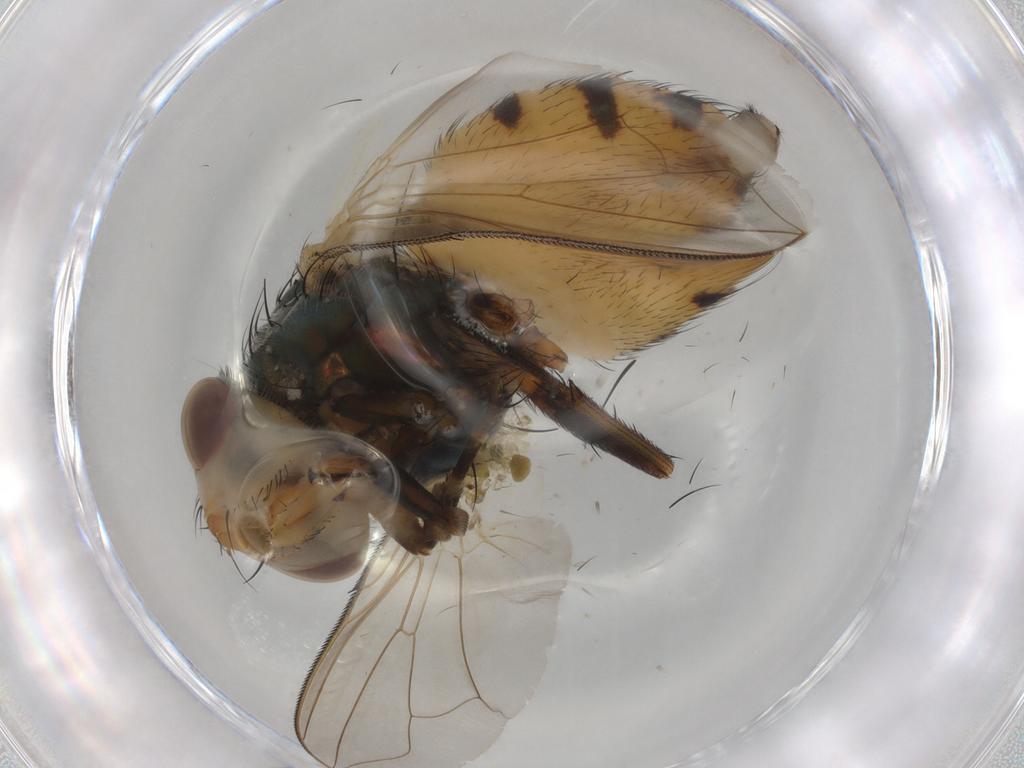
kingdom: Animalia
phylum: Arthropoda
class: Insecta
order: Diptera
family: Calliphoridae
